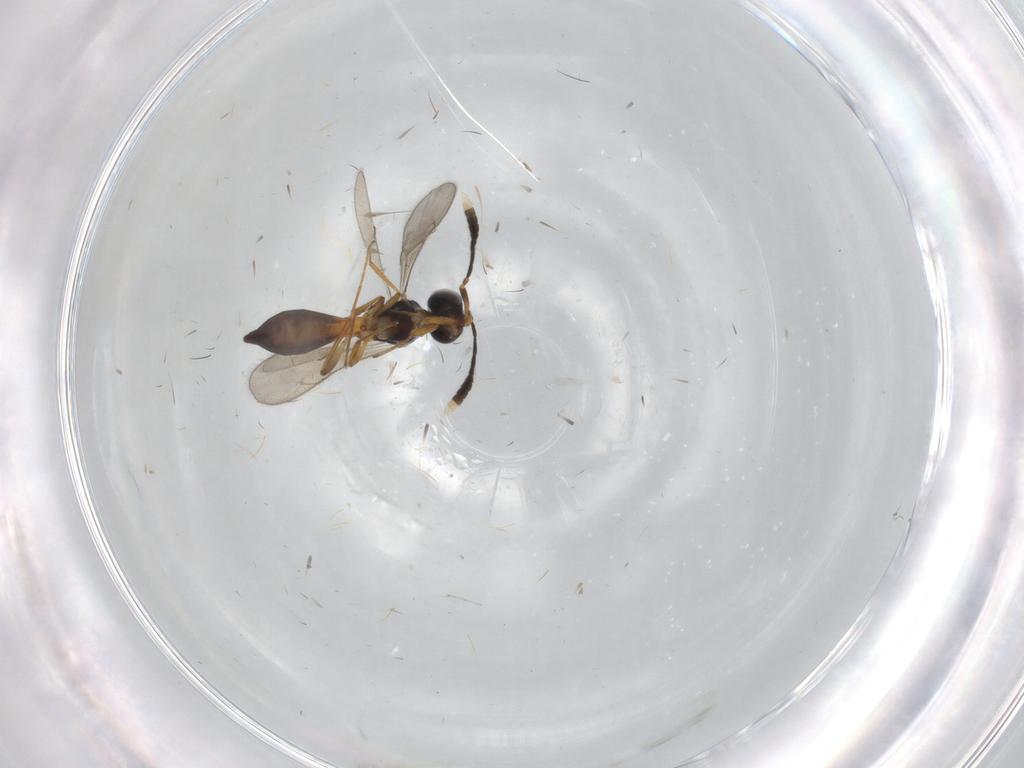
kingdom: Animalia
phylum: Arthropoda
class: Insecta
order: Hymenoptera
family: Scelionidae
